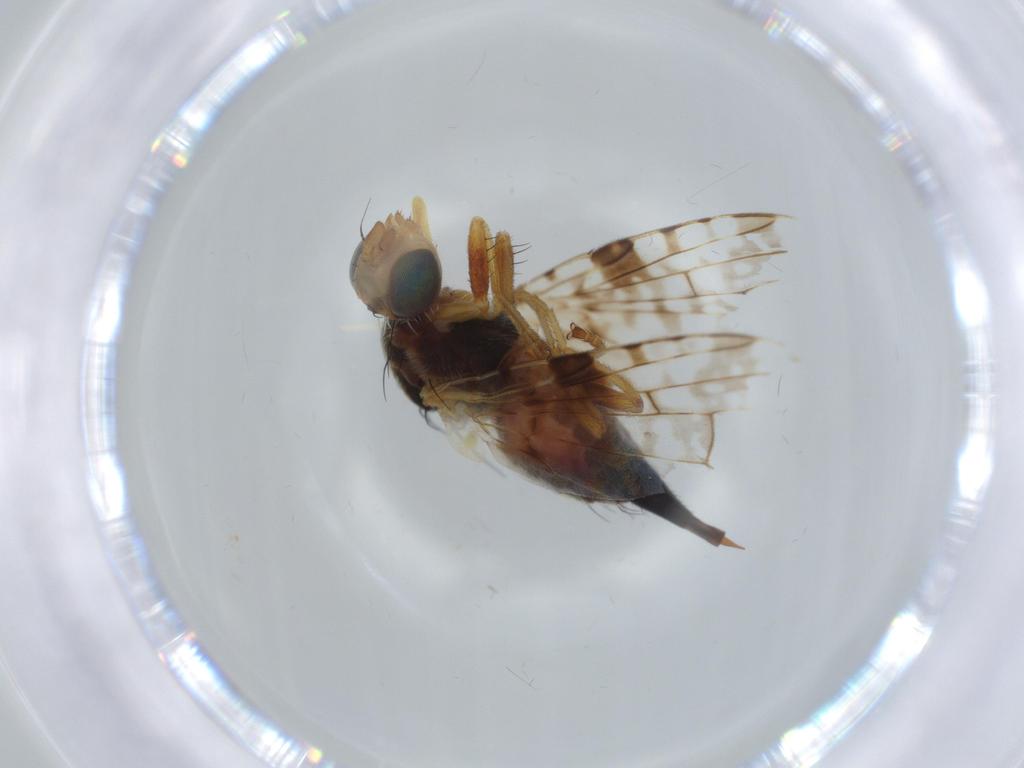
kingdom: Animalia
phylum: Arthropoda
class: Insecta
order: Diptera
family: Tephritidae
